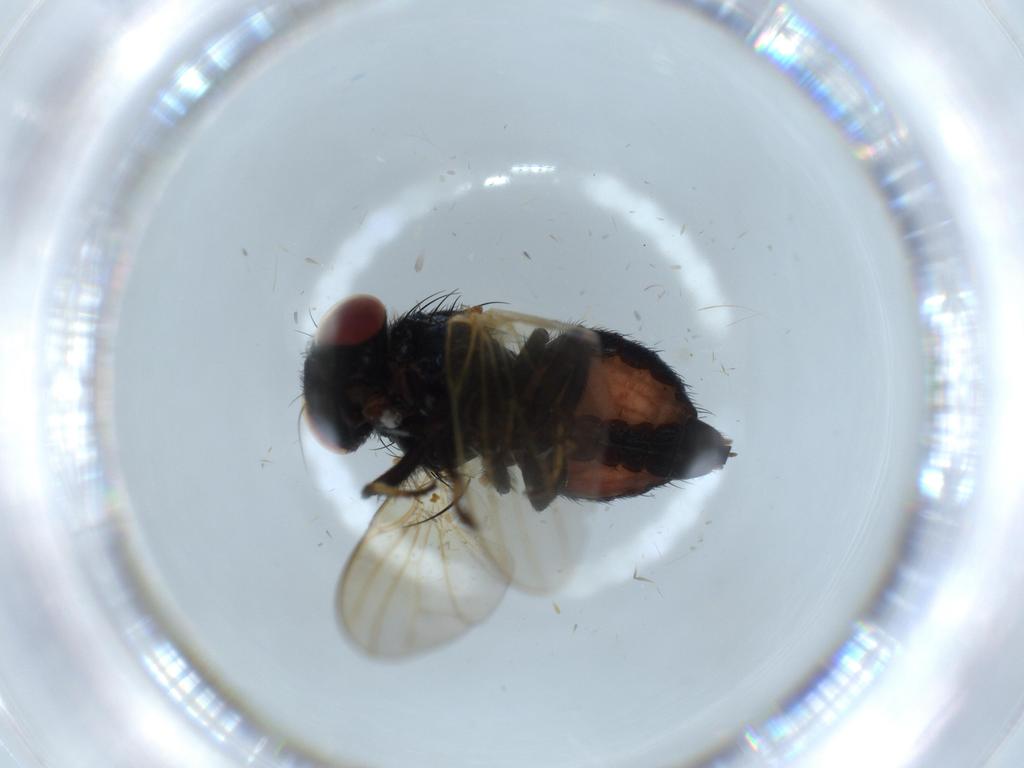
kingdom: Animalia
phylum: Arthropoda
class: Insecta
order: Diptera
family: Lonchaeidae
